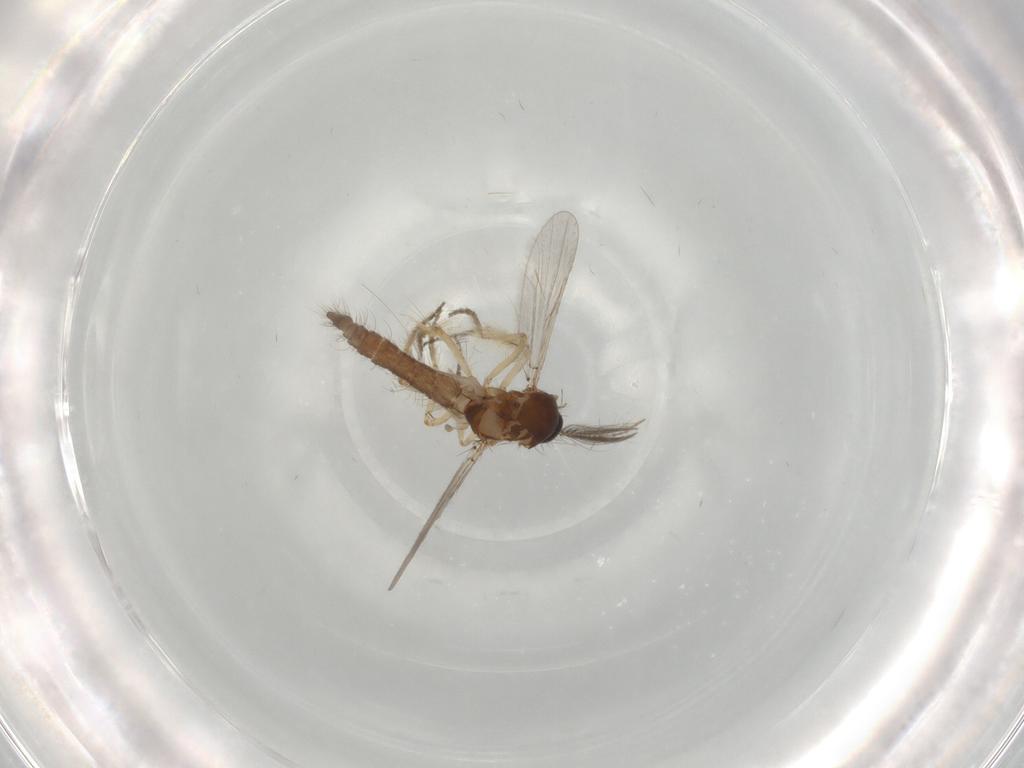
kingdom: Animalia
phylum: Arthropoda
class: Insecta
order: Diptera
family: Ceratopogonidae
